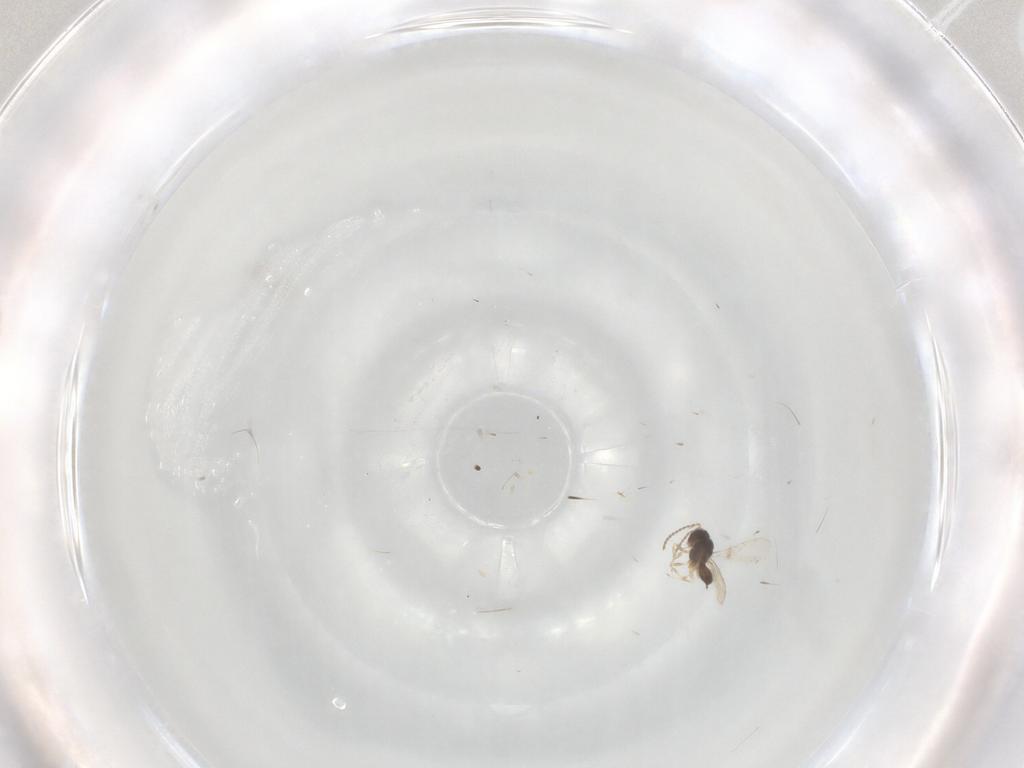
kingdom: Animalia
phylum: Arthropoda
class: Insecta
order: Hymenoptera
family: Scelionidae
